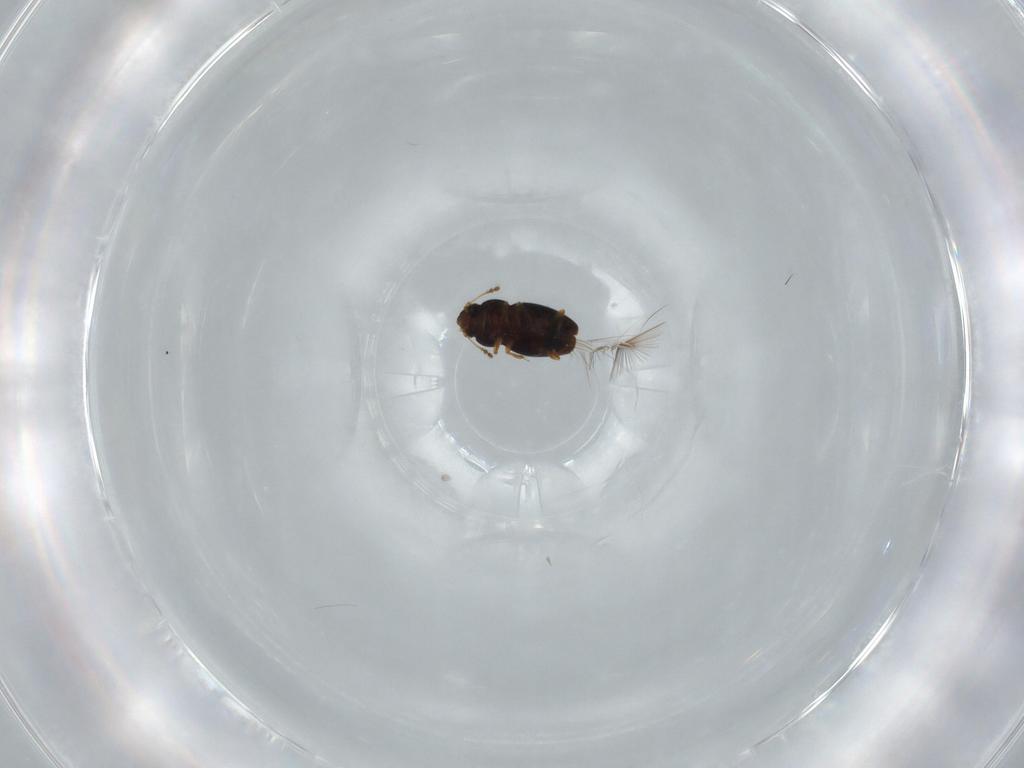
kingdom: Animalia
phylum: Arthropoda
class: Insecta
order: Coleoptera
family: Ptiliidae
